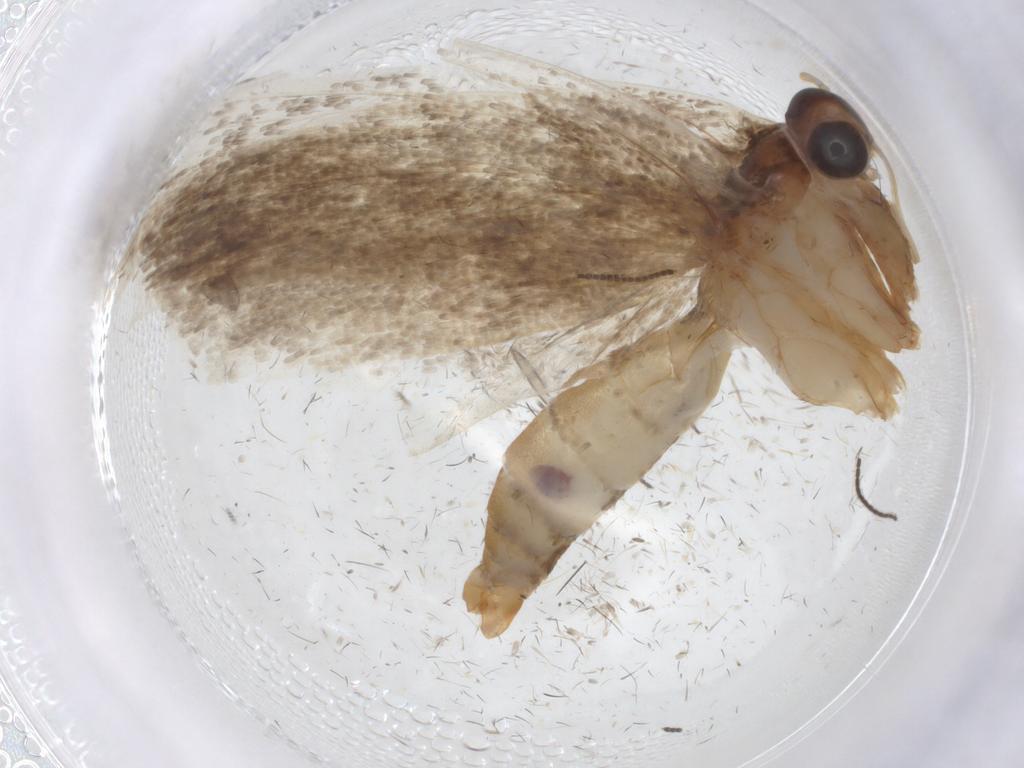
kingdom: Animalia
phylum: Arthropoda
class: Insecta
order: Lepidoptera
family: Oecophoridae
